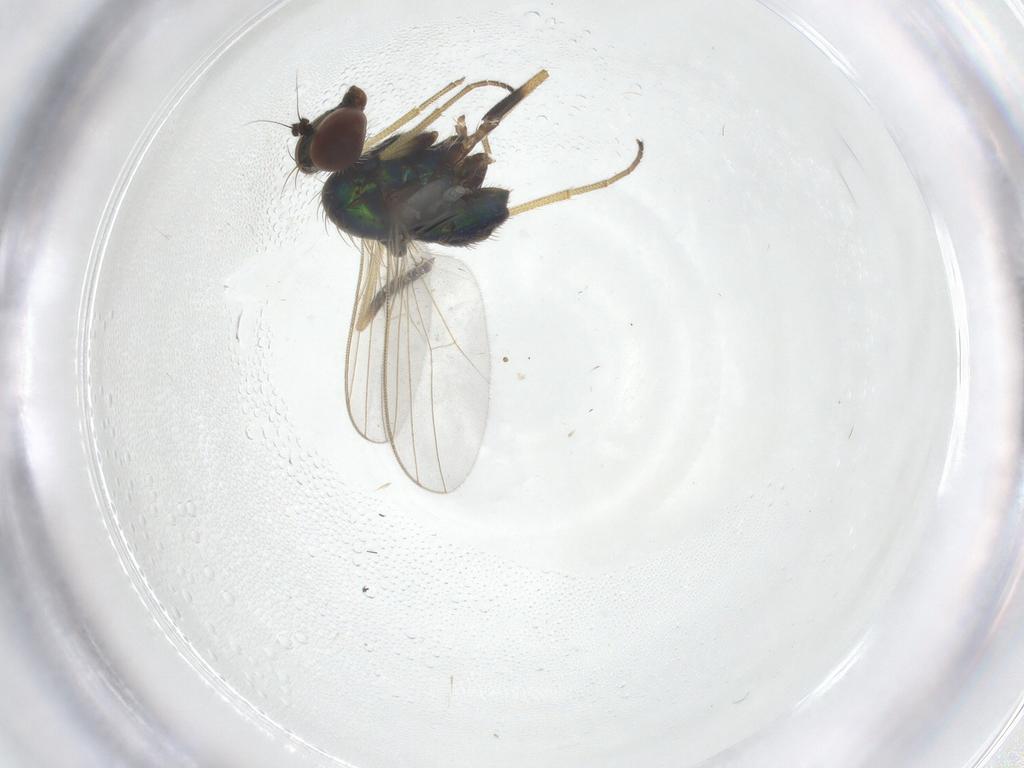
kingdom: Animalia
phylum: Arthropoda
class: Insecta
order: Diptera
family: Dolichopodidae
